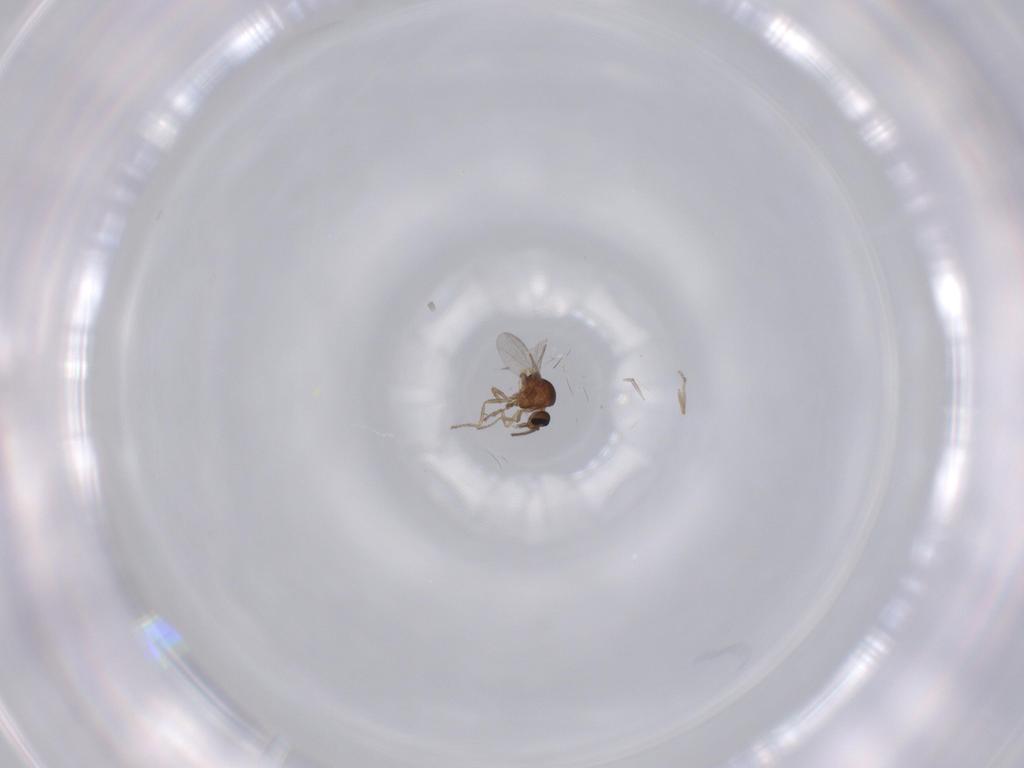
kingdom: Animalia
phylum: Arthropoda
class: Insecta
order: Diptera
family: Ceratopogonidae
